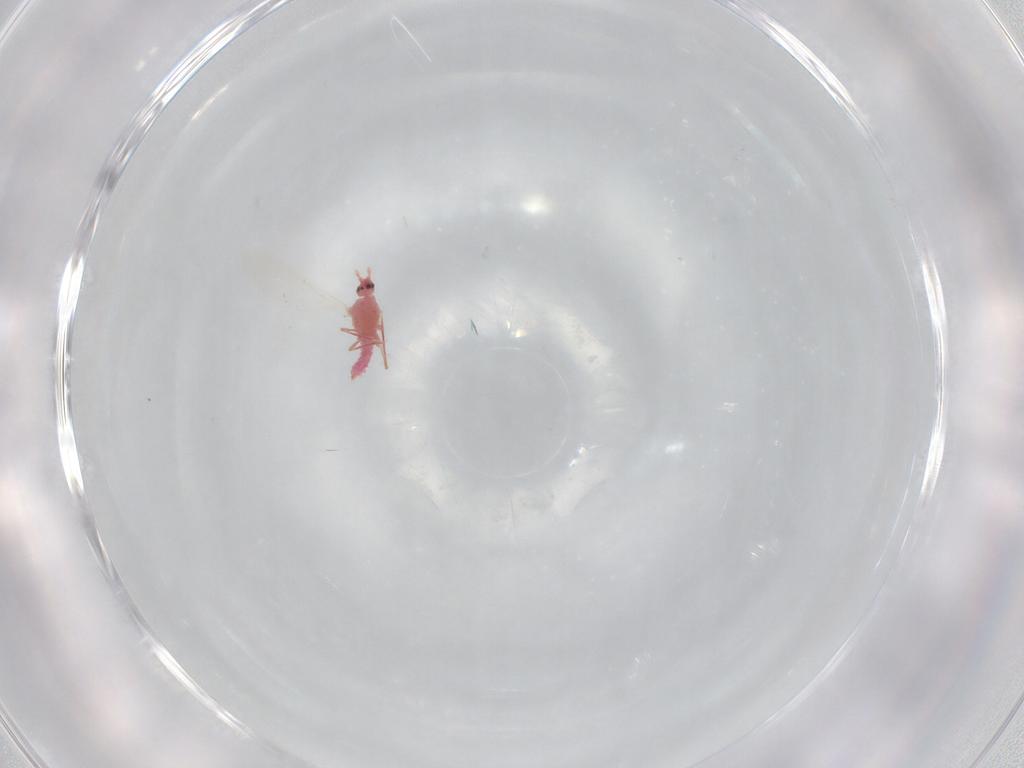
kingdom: Animalia
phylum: Arthropoda
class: Insecta
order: Hemiptera
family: Pseudococcidae
